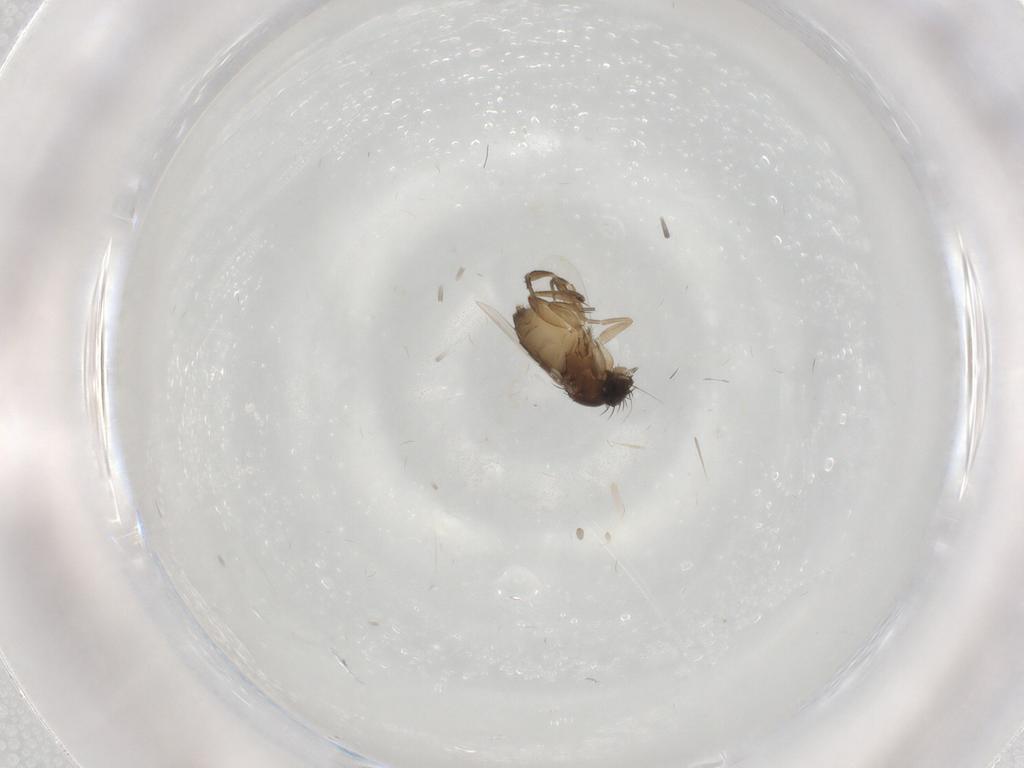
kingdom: Animalia
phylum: Arthropoda
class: Insecta
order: Diptera
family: Phoridae
